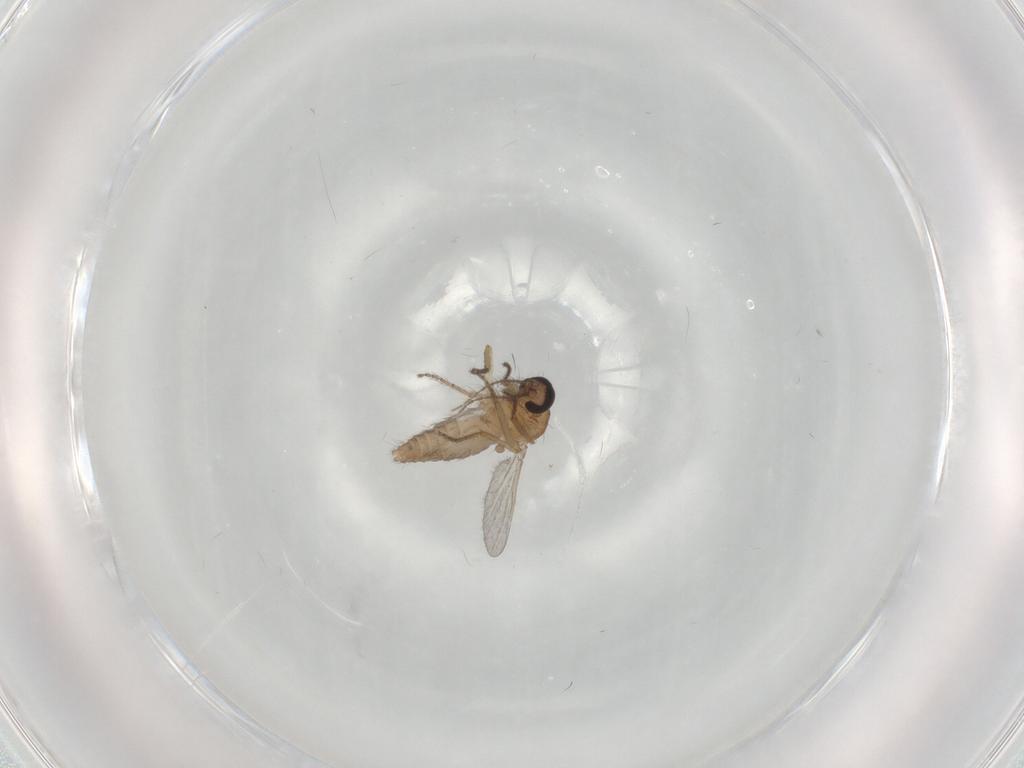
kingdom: Animalia
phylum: Arthropoda
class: Insecta
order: Diptera
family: Ceratopogonidae
